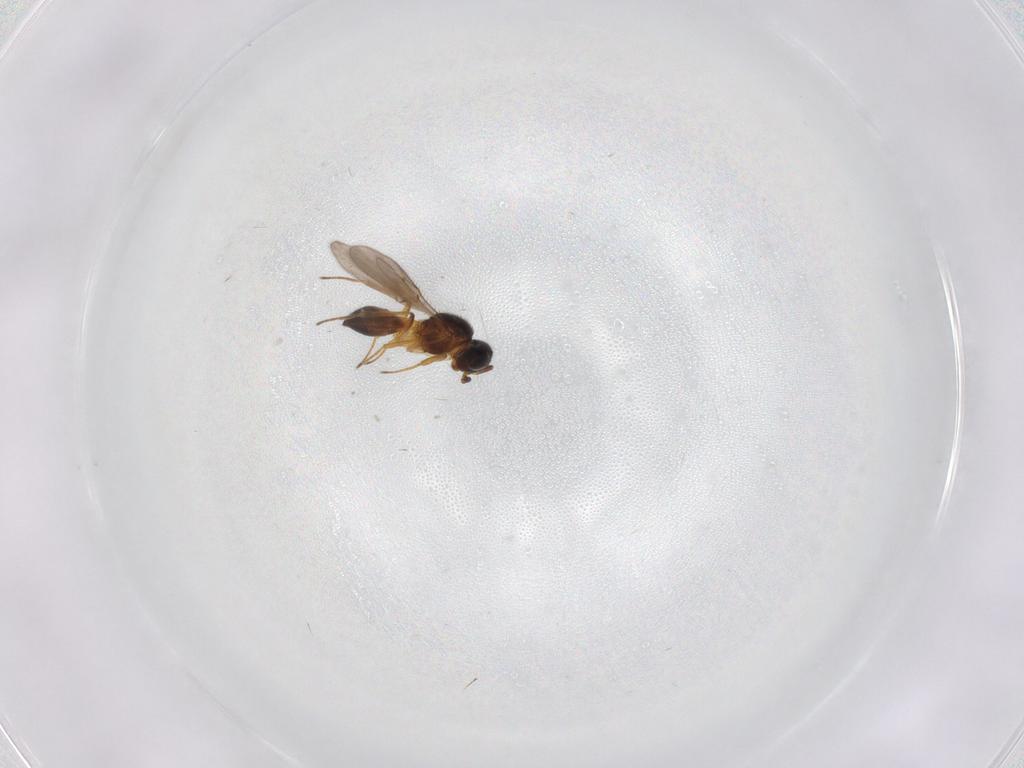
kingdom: Animalia
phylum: Arthropoda
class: Insecta
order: Hymenoptera
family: Scelionidae
